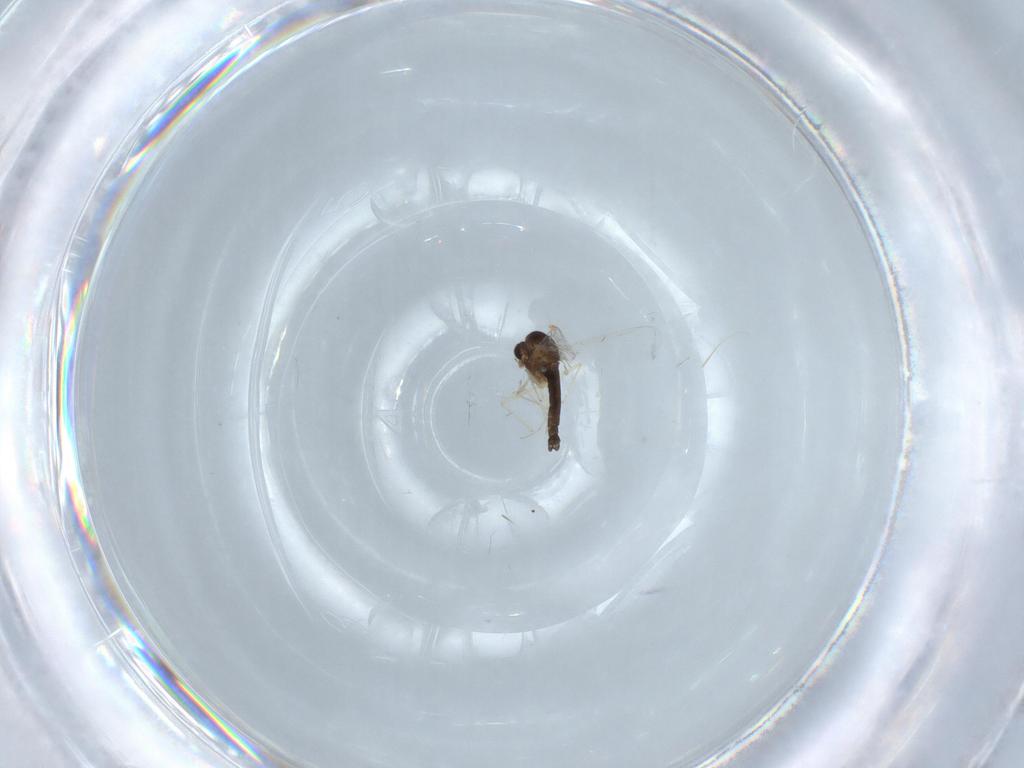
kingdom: Animalia
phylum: Arthropoda
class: Insecta
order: Diptera
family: Chironomidae
